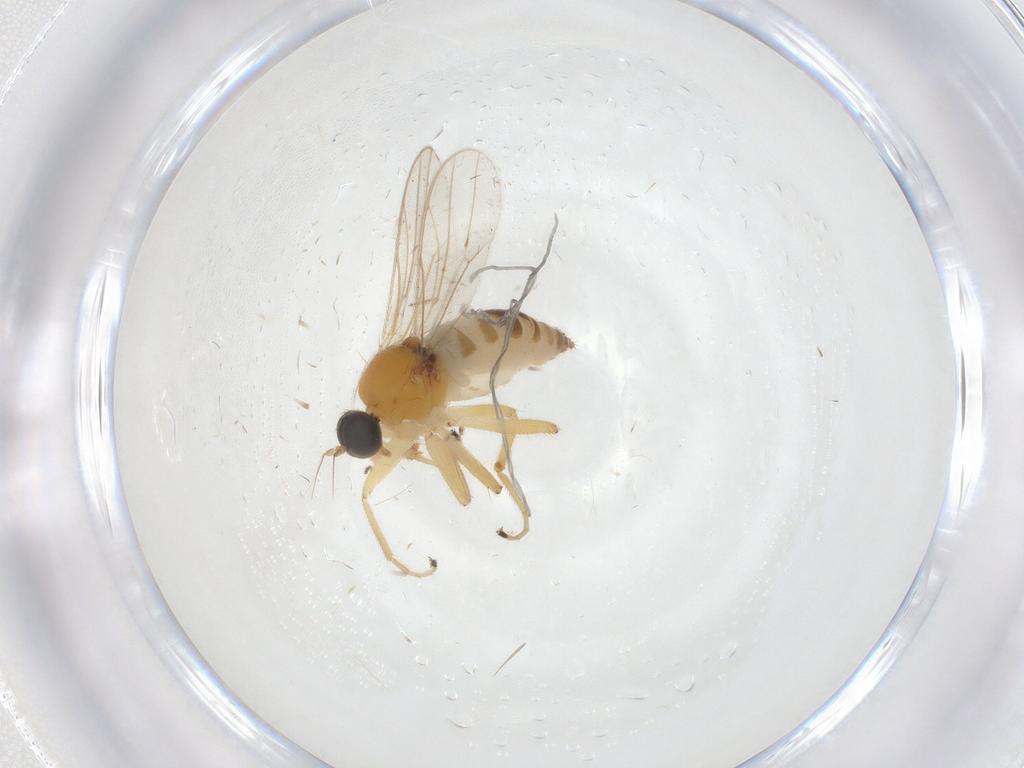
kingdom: Animalia
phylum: Arthropoda
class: Insecta
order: Diptera
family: Hybotidae
